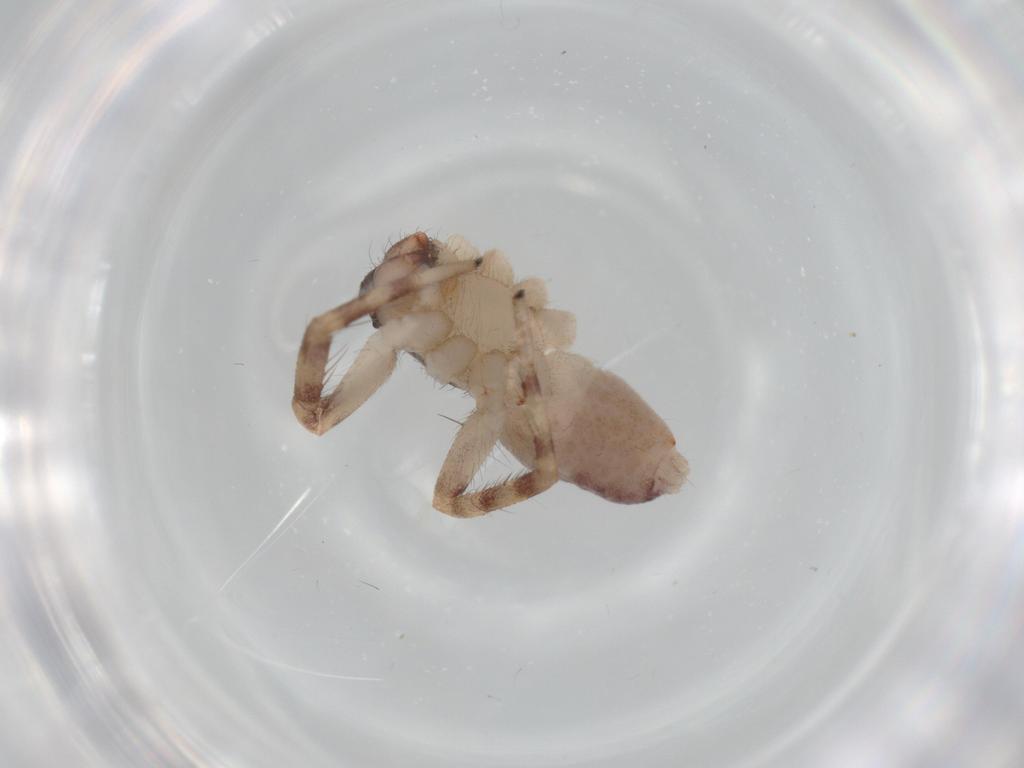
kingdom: Animalia
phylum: Arthropoda
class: Arachnida
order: Araneae
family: Corinnidae
